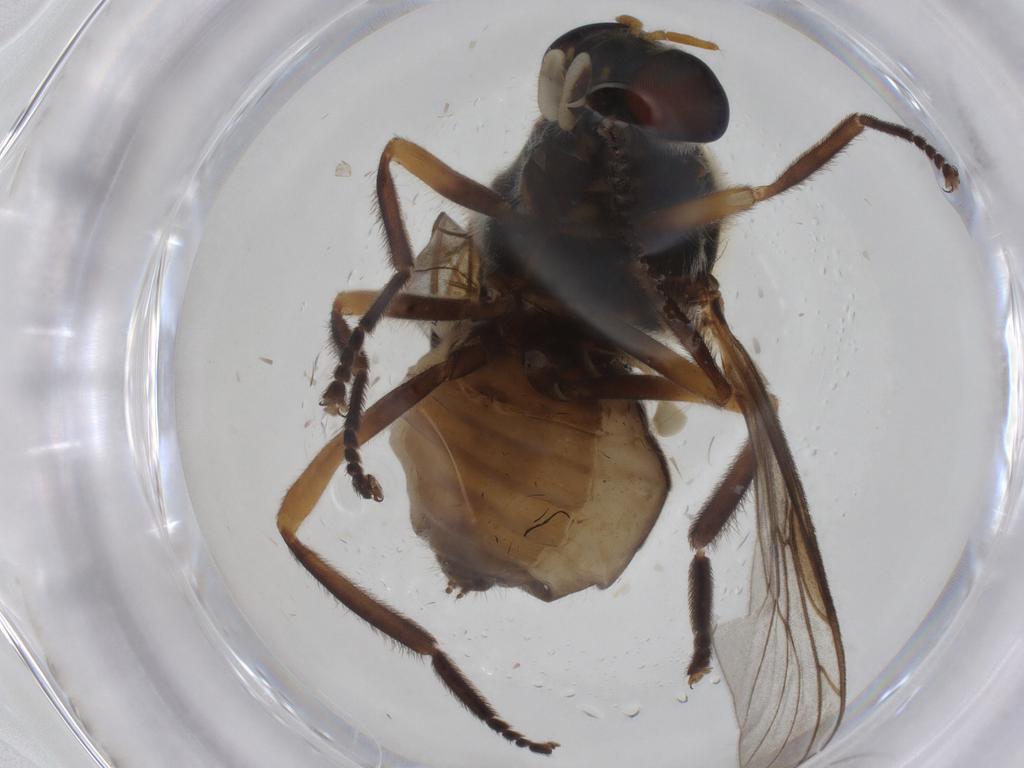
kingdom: Animalia
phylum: Arthropoda
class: Insecta
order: Diptera
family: Stratiomyidae
